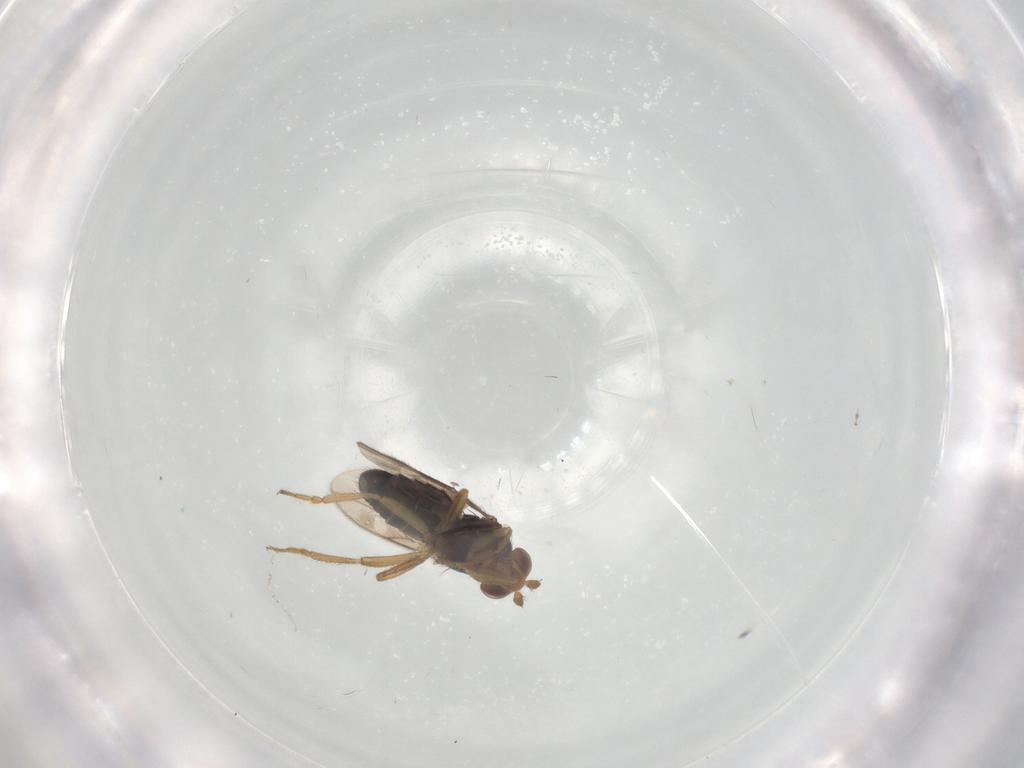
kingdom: Animalia
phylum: Arthropoda
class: Insecta
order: Diptera
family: Sphaeroceridae
